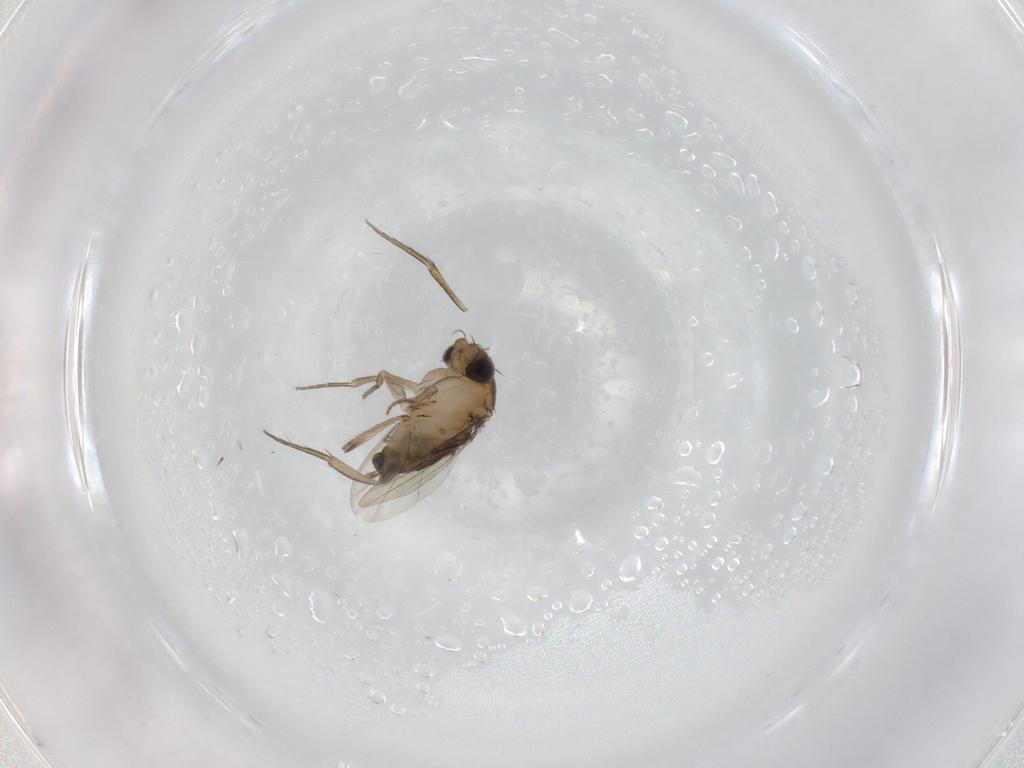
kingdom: Animalia
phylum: Arthropoda
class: Insecta
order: Diptera
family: Phoridae
